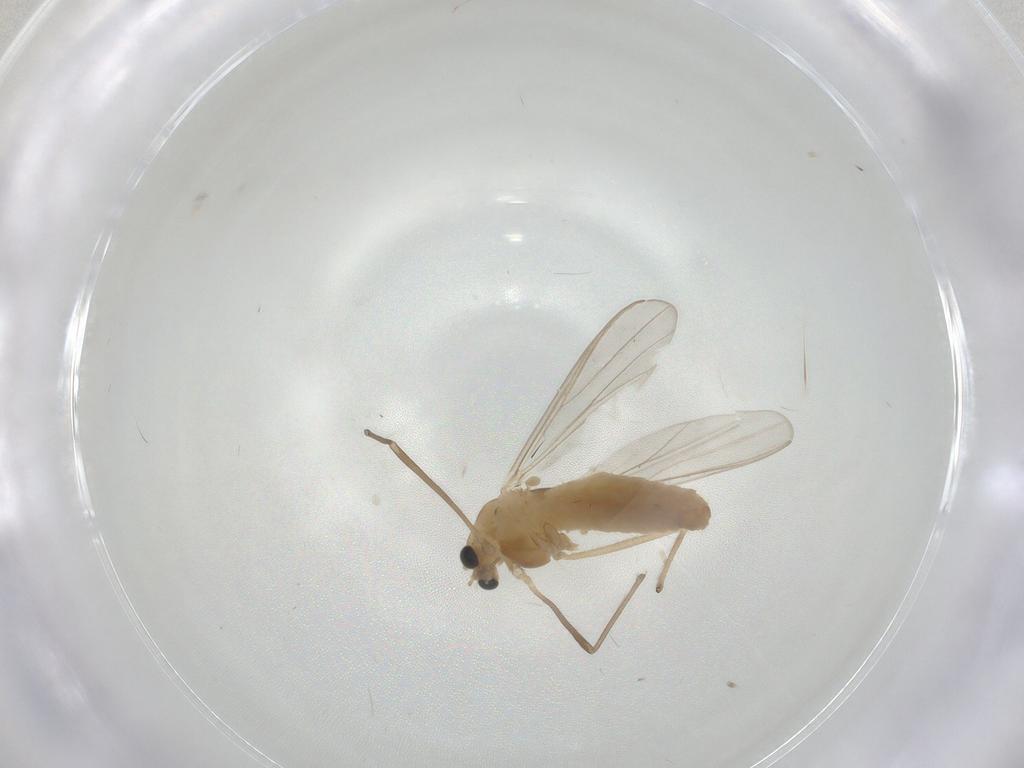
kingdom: Animalia
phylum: Arthropoda
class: Insecta
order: Diptera
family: Chironomidae
